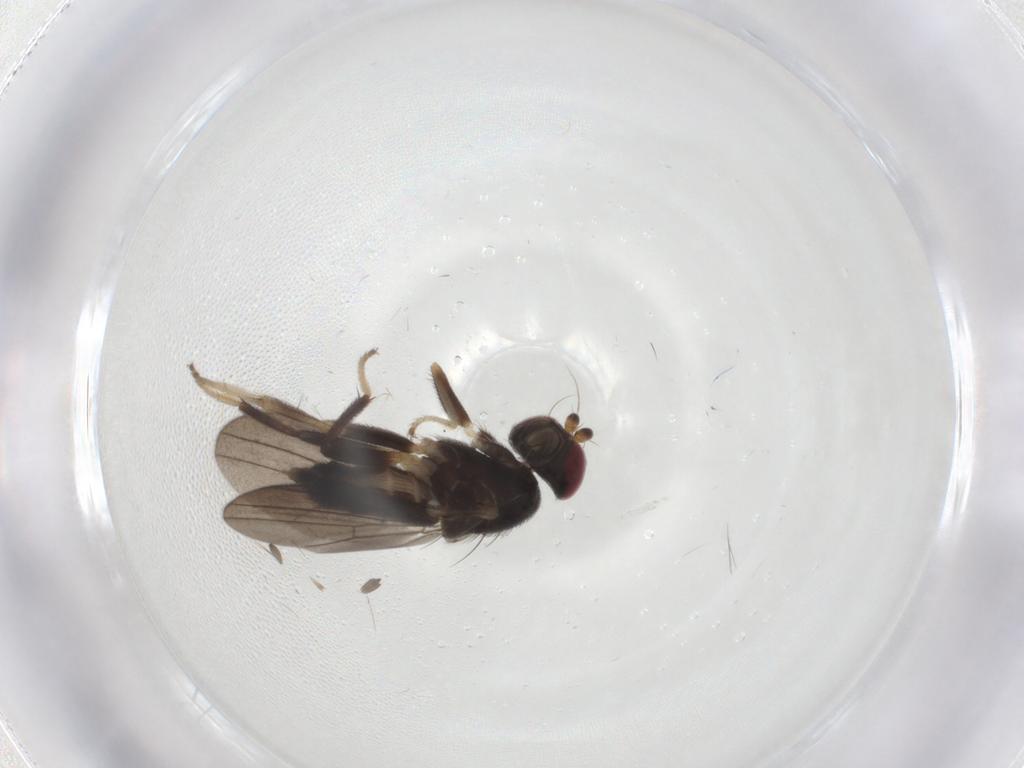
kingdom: Animalia
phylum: Arthropoda
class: Insecta
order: Diptera
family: Clusiidae
